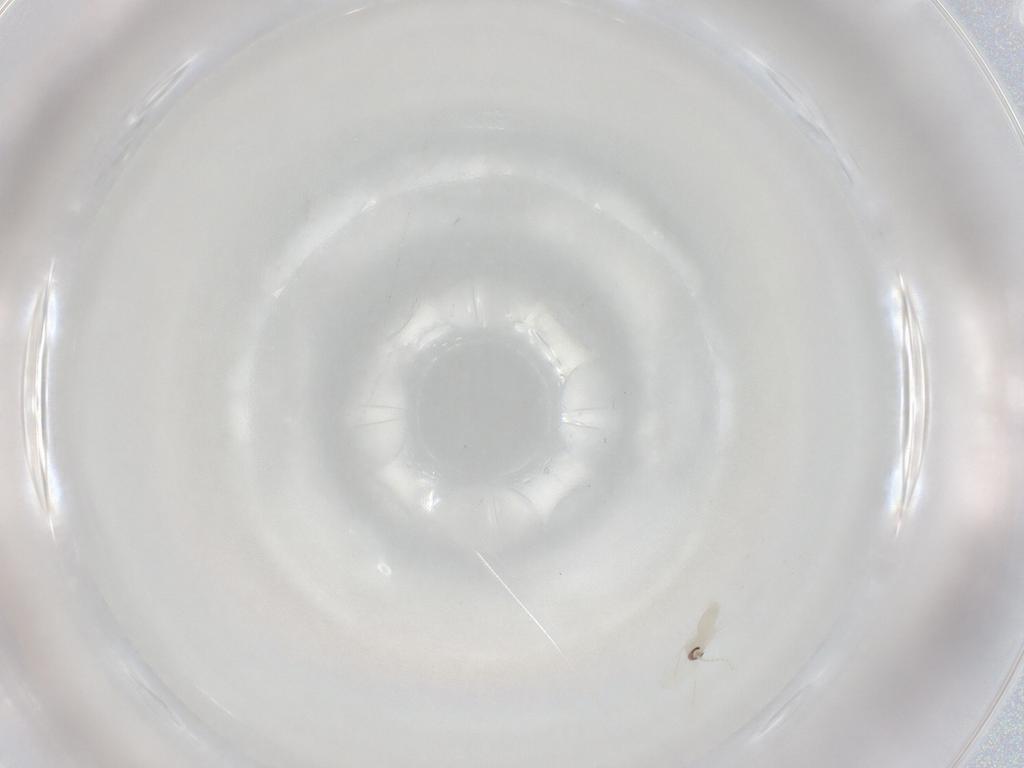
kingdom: Animalia
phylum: Arthropoda
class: Insecta
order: Diptera
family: Cecidomyiidae
